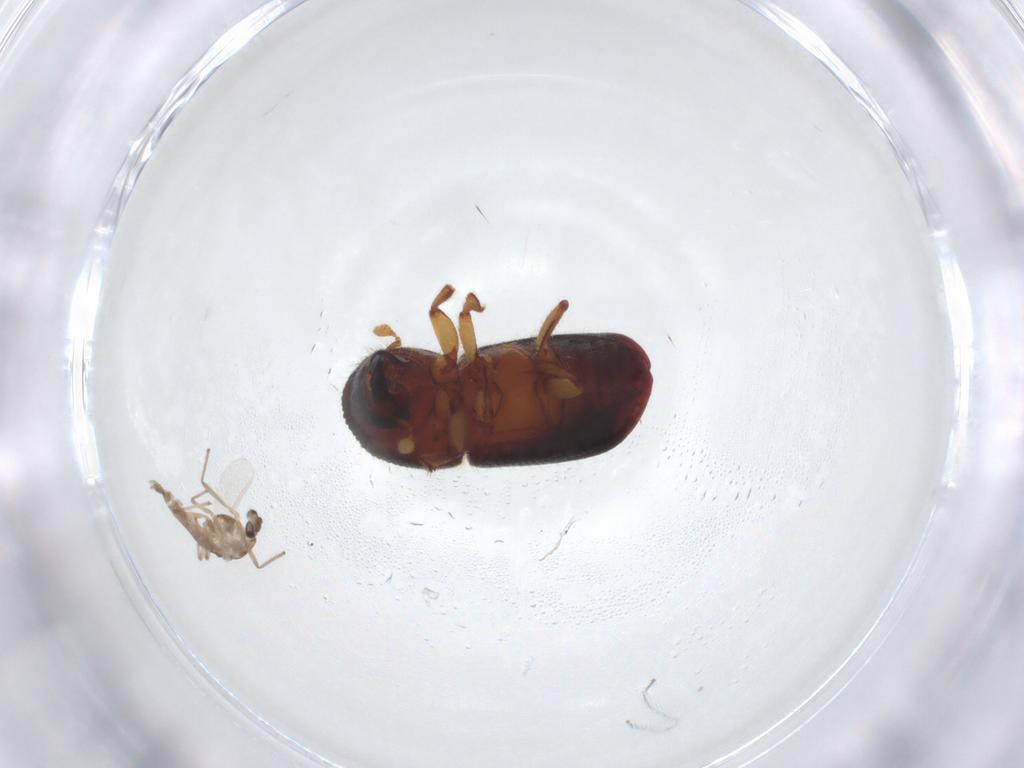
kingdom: Animalia
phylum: Arthropoda
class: Insecta
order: Coleoptera
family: Curculionidae
